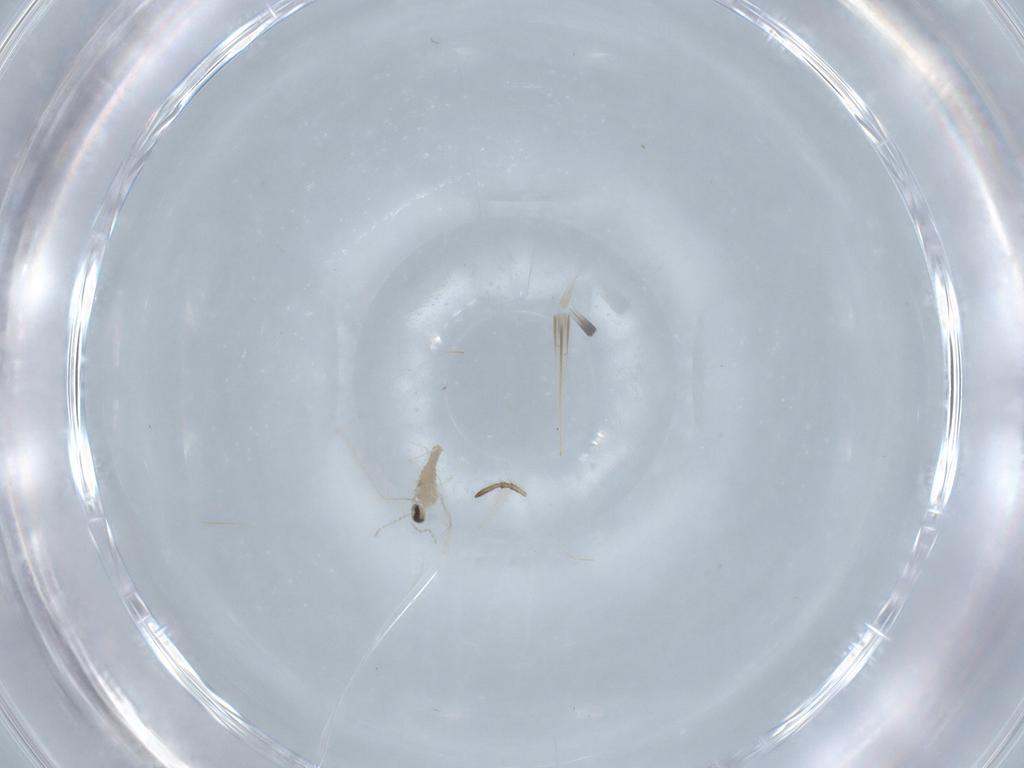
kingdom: Animalia
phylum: Arthropoda
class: Insecta
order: Diptera
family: Cecidomyiidae
